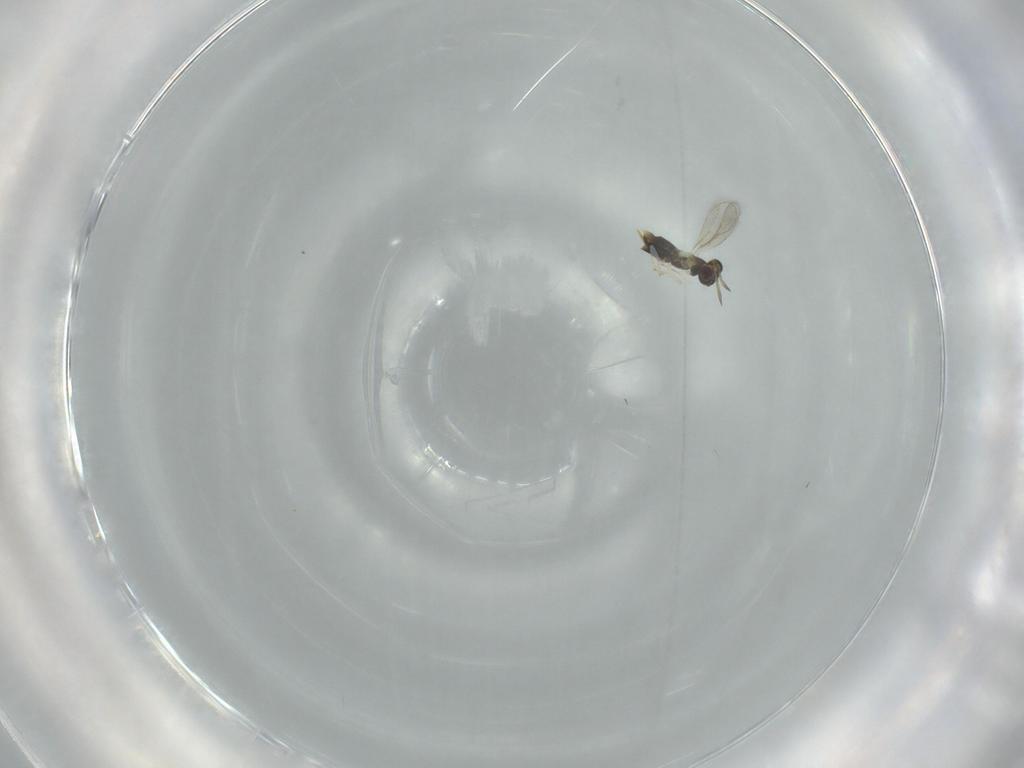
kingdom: Animalia
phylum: Arthropoda
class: Insecta
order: Hymenoptera
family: Aphelinidae
